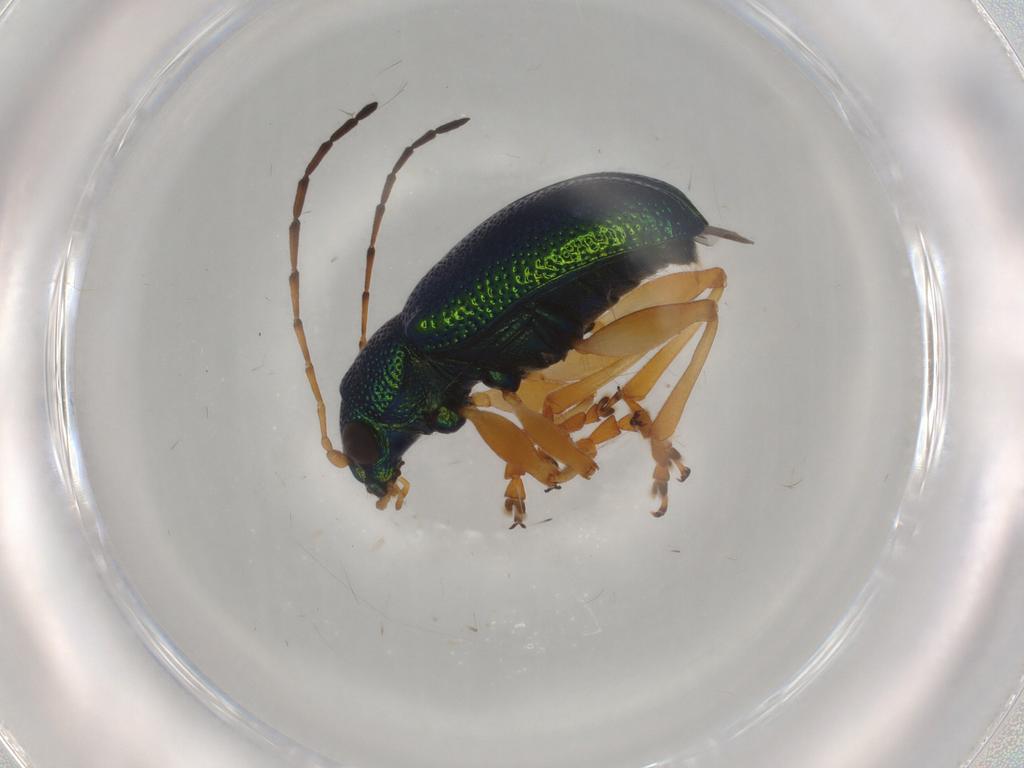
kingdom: Animalia
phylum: Arthropoda
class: Insecta
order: Coleoptera
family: Chrysomelidae
